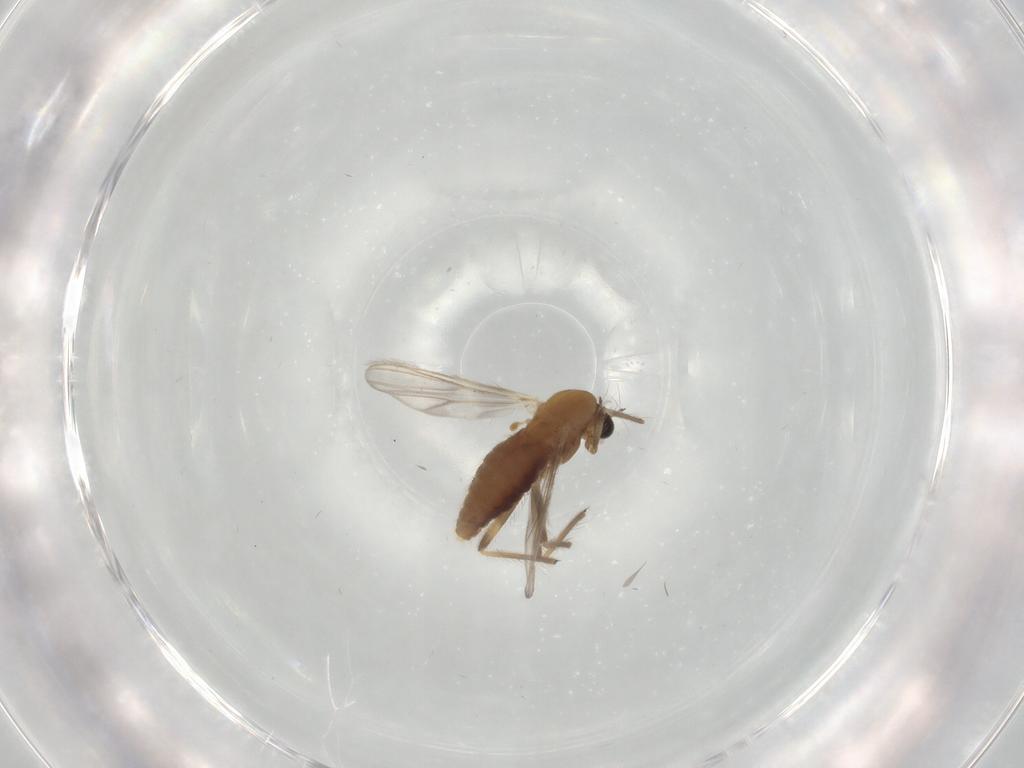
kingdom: Animalia
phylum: Arthropoda
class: Insecta
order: Diptera
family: Chironomidae
